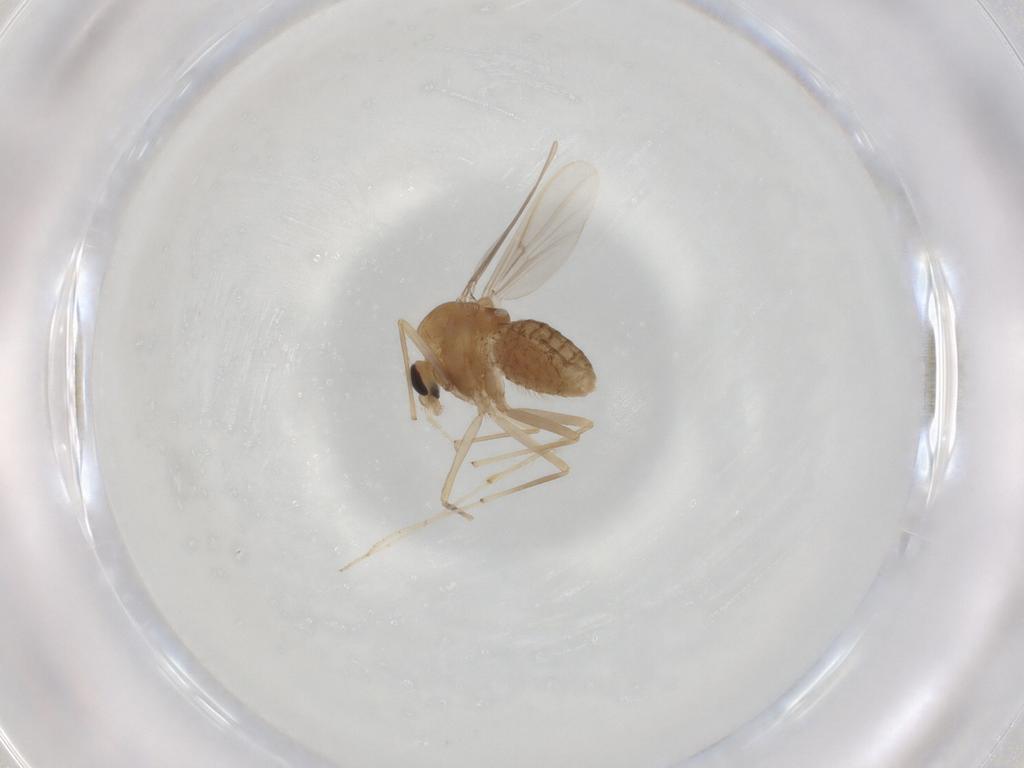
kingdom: Animalia
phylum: Arthropoda
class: Insecta
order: Diptera
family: Chironomidae
